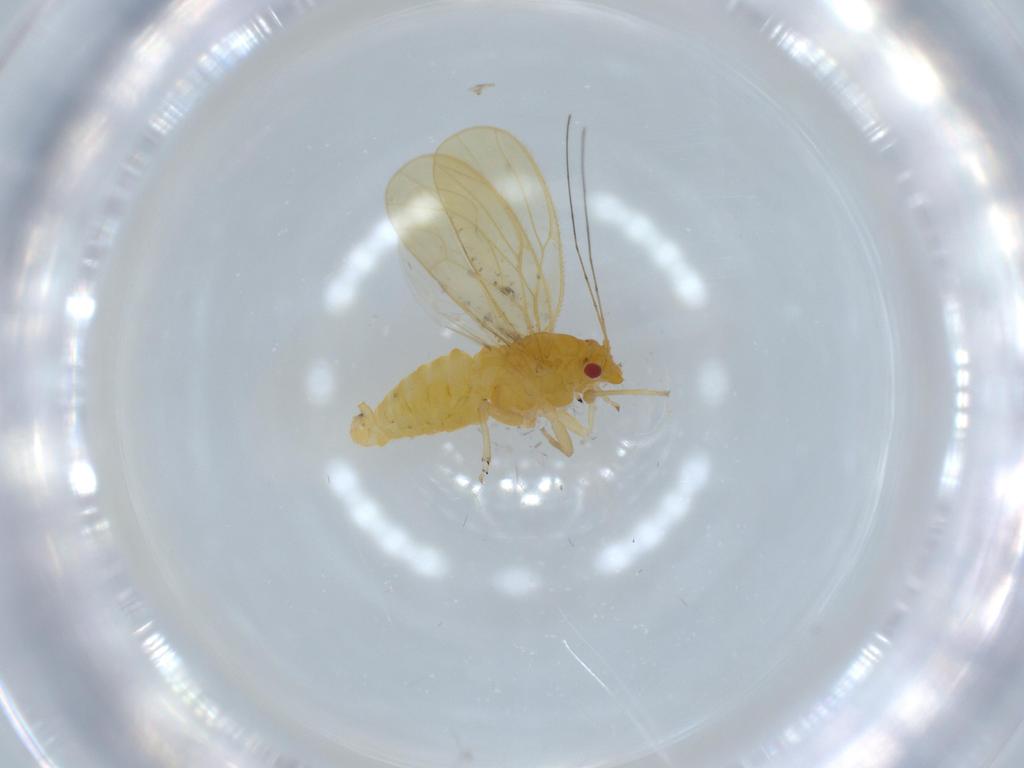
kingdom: Animalia
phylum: Arthropoda
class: Insecta
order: Hemiptera
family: Psyllidae
